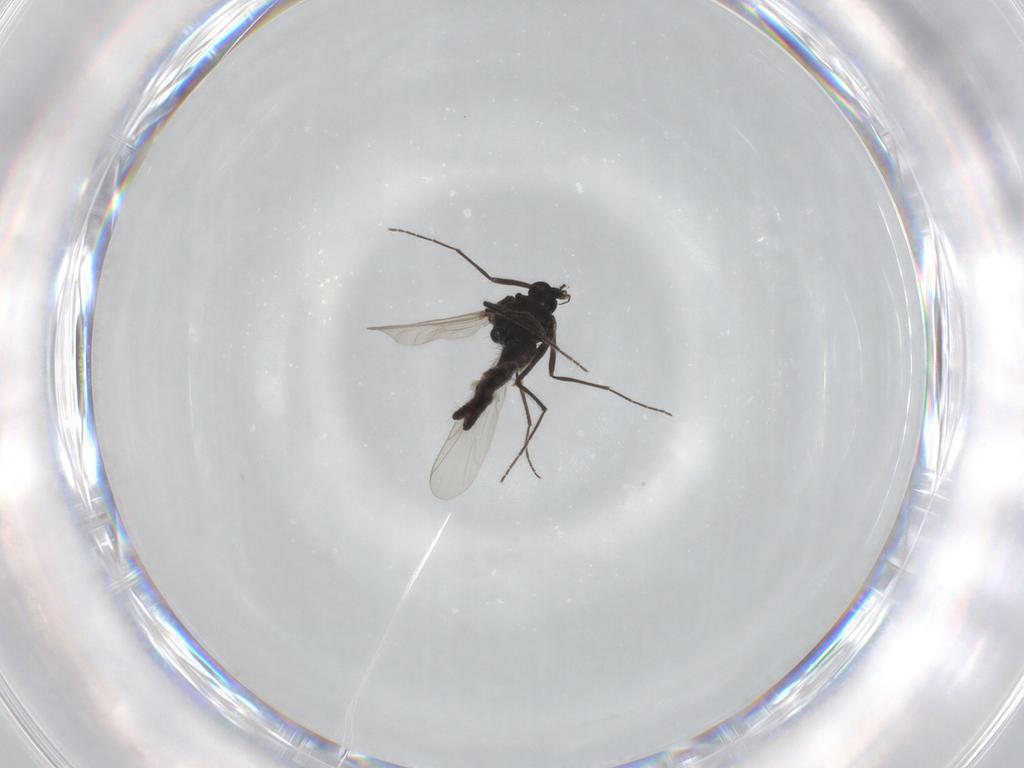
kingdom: Animalia
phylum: Arthropoda
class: Insecta
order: Diptera
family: Chironomidae
